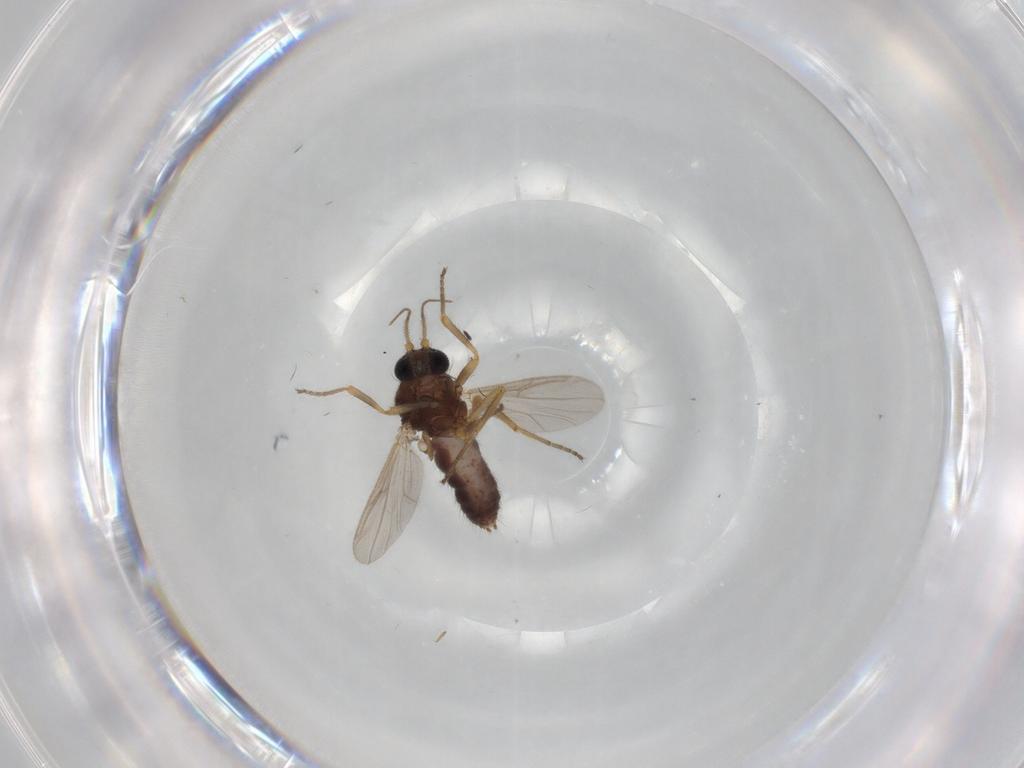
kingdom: Animalia
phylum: Arthropoda
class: Insecta
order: Diptera
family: Ceratopogonidae
